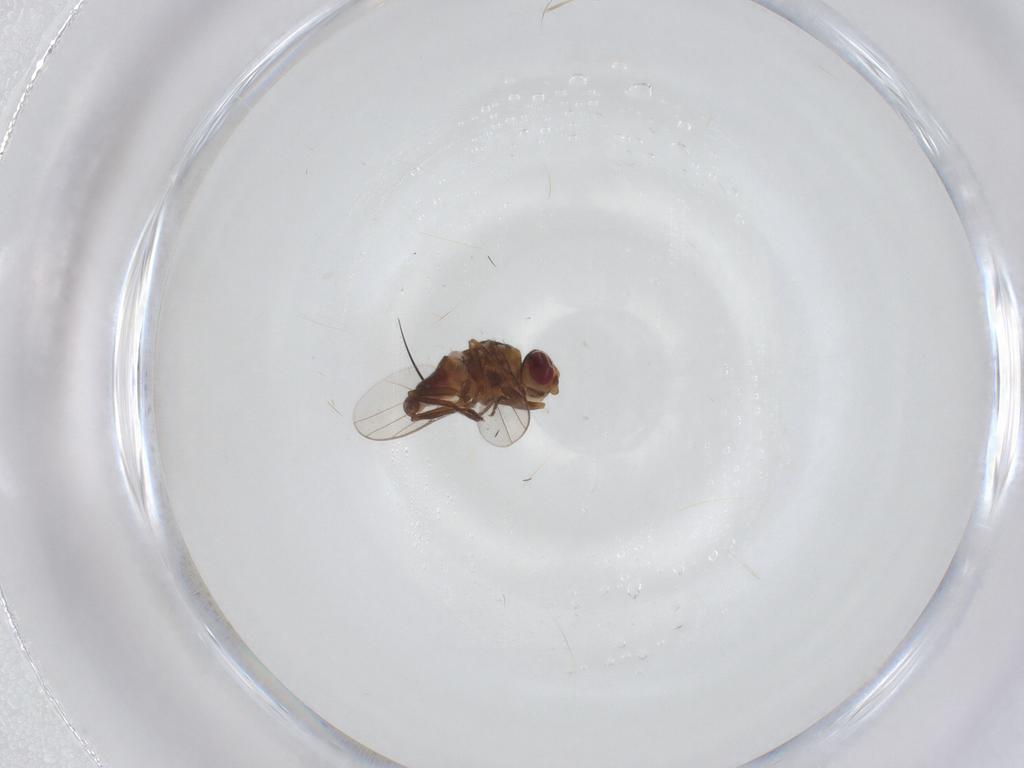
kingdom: Animalia
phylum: Arthropoda
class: Insecta
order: Diptera
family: Chloropidae
